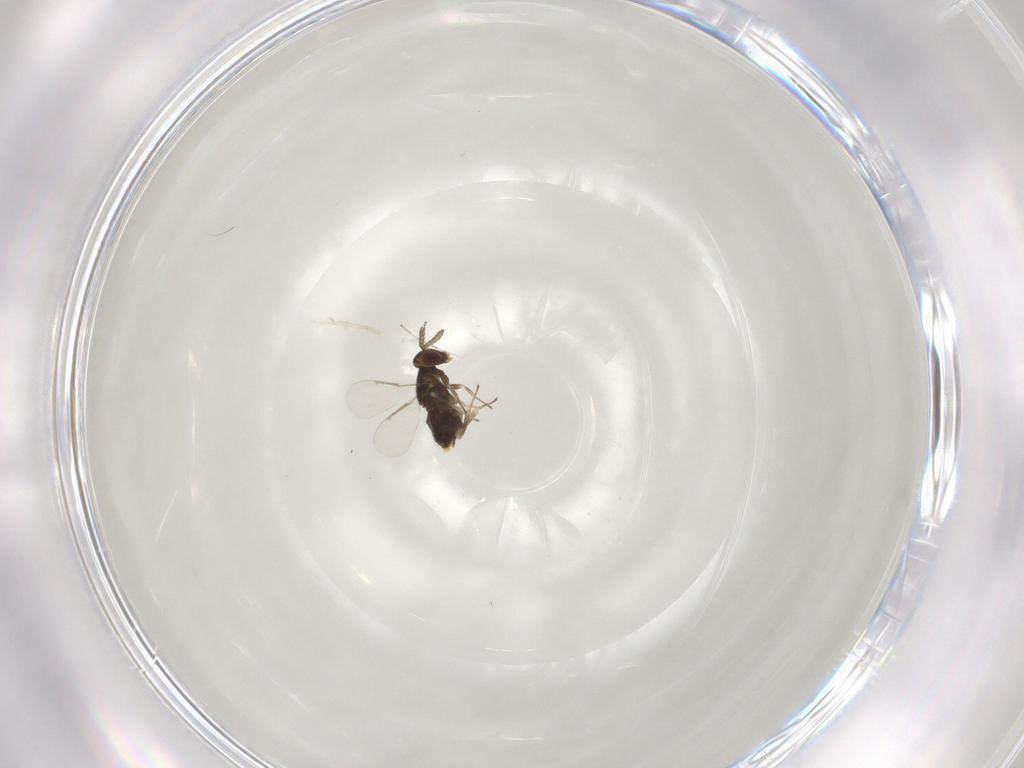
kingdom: Animalia
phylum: Arthropoda
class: Insecta
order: Hymenoptera
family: Aphelinidae
